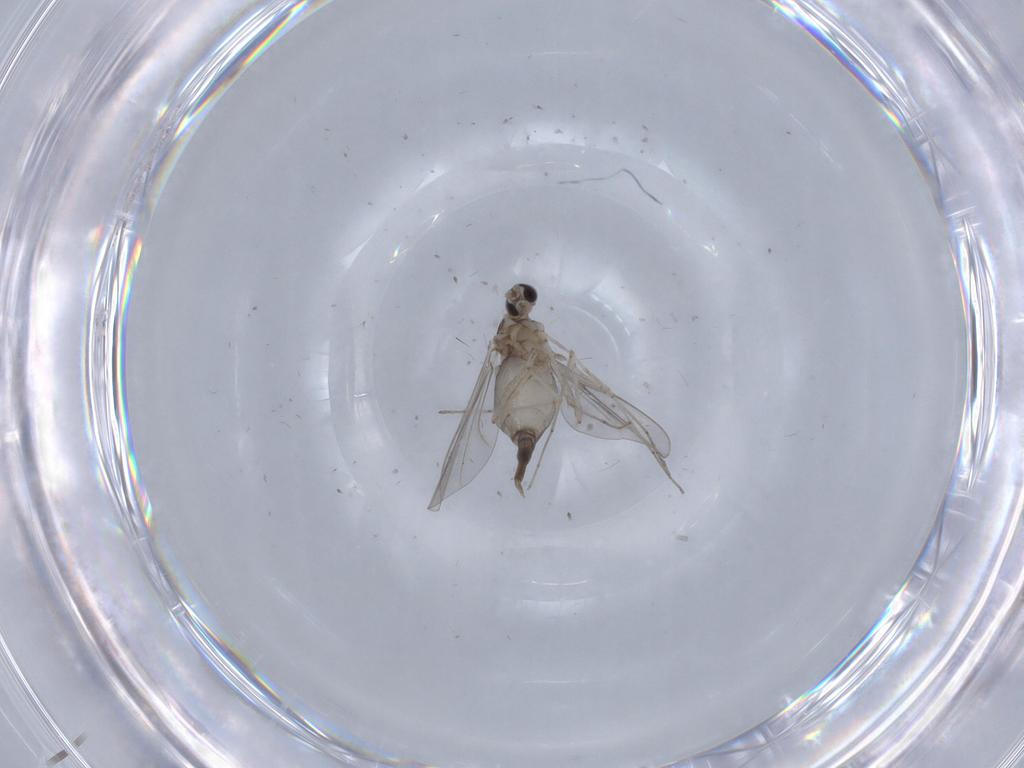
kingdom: Animalia
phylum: Arthropoda
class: Insecta
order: Diptera
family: Cecidomyiidae
